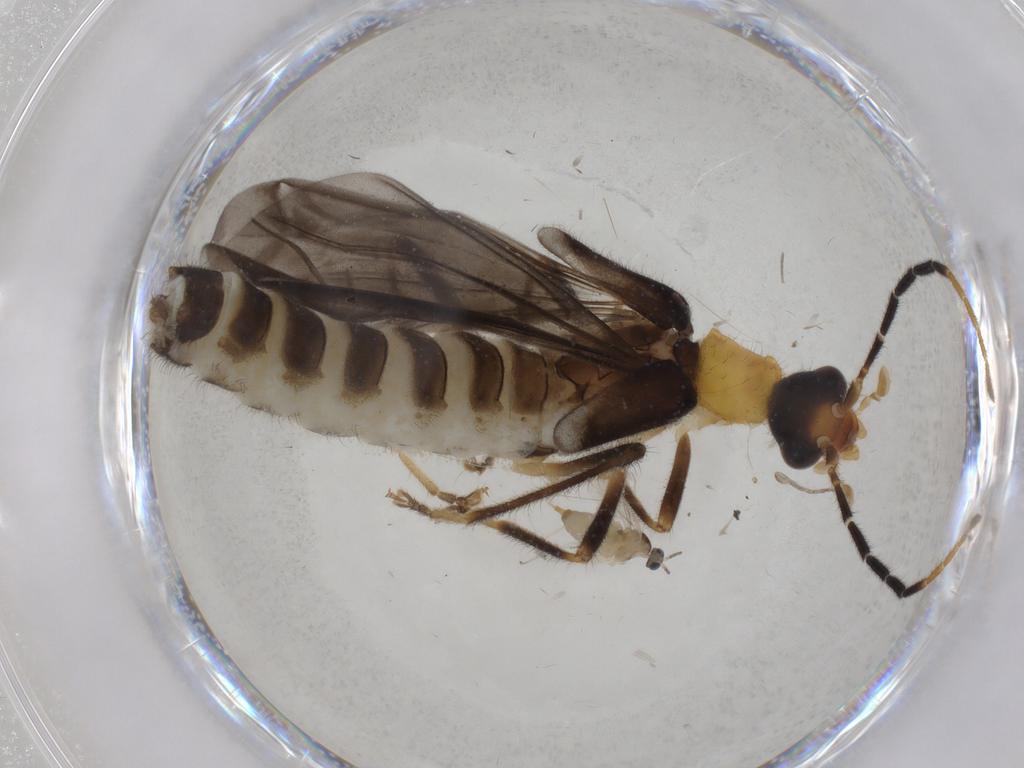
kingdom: Animalia
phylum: Arthropoda
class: Insecta
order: Diptera
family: Cecidomyiidae
